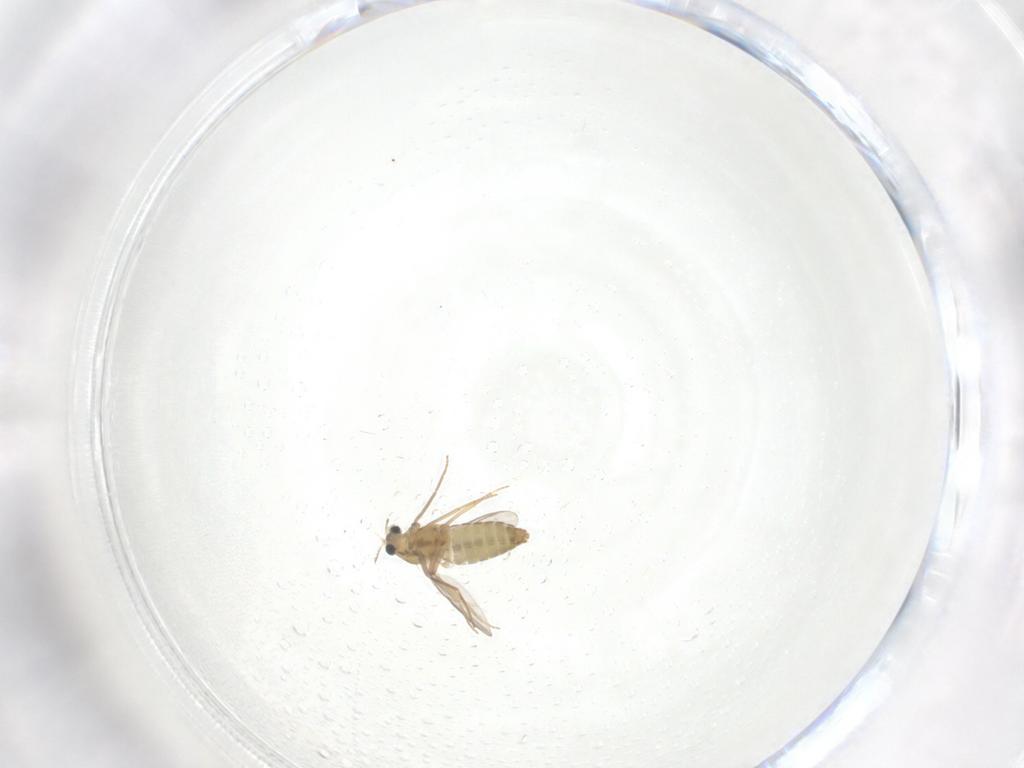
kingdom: Animalia
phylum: Arthropoda
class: Insecta
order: Diptera
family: Chironomidae
